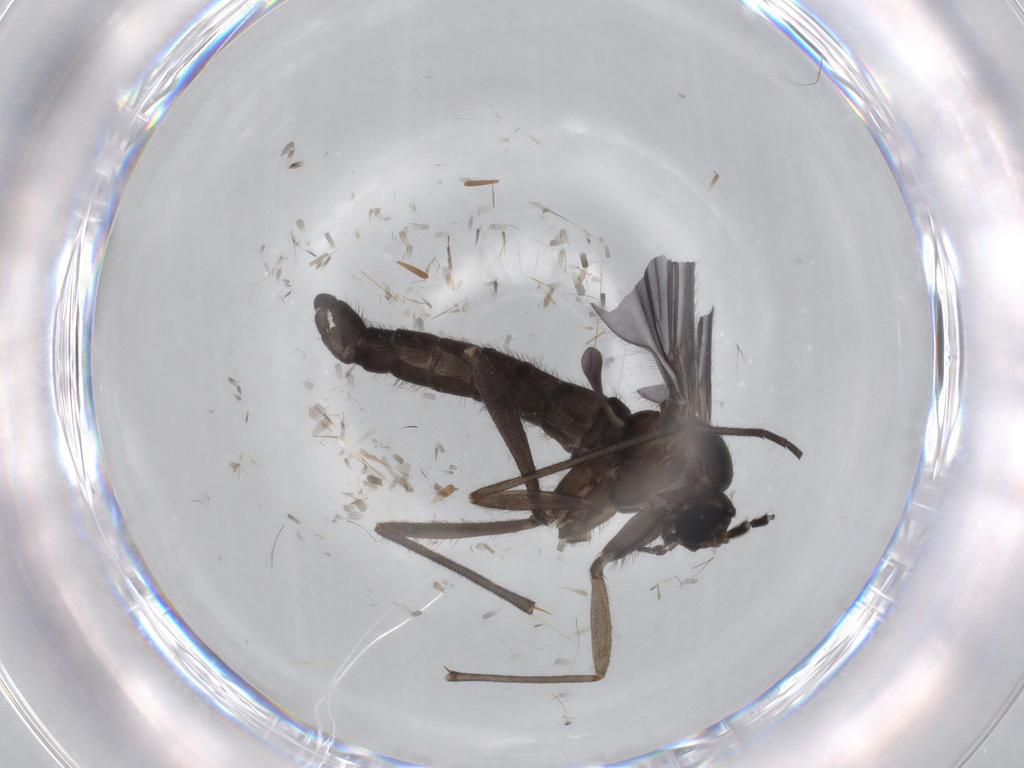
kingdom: Animalia
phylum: Arthropoda
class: Insecta
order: Diptera
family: Sciaridae
